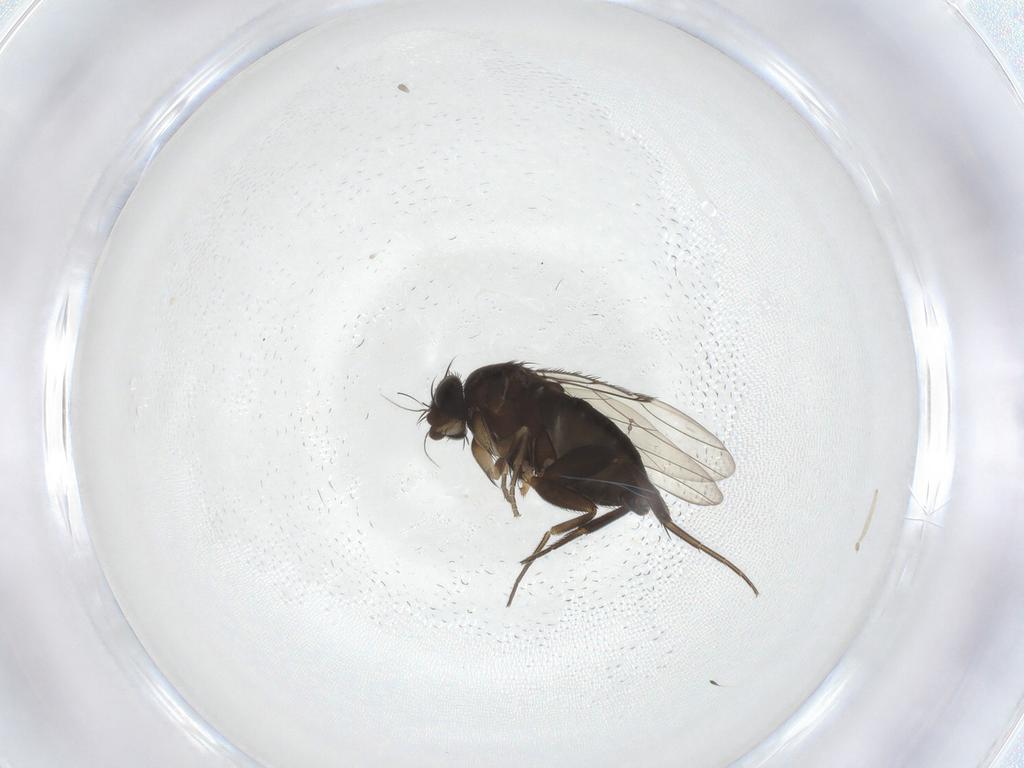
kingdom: Animalia
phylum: Arthropoda
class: Insecta
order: Diptera
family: Phoridae
